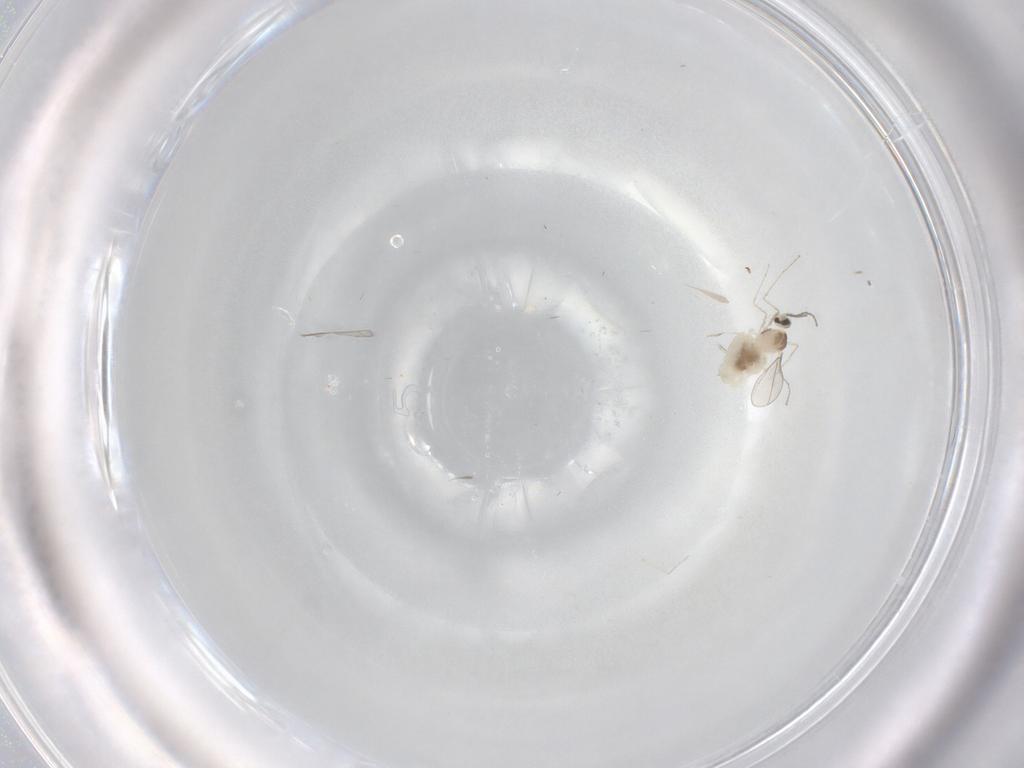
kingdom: Animalia
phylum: Arthropoda
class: Insecta
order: Diptera
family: Cecidomyiidae
